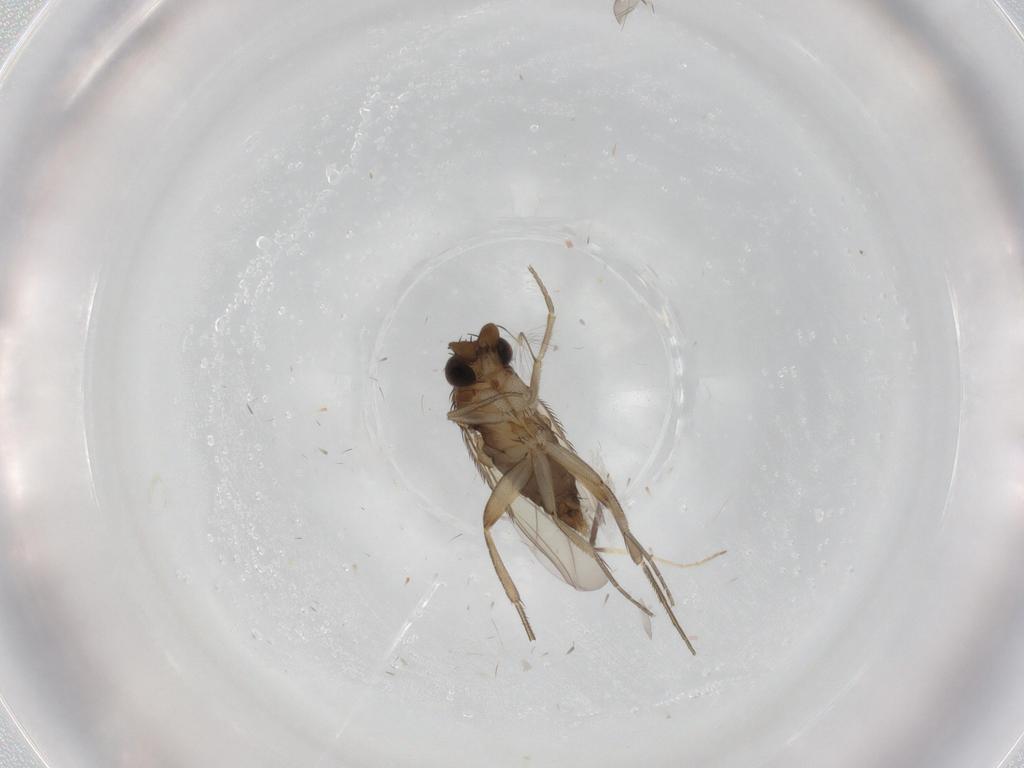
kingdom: Animalia
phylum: Arthropoda
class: Insecta
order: Diptera
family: Phoridae
